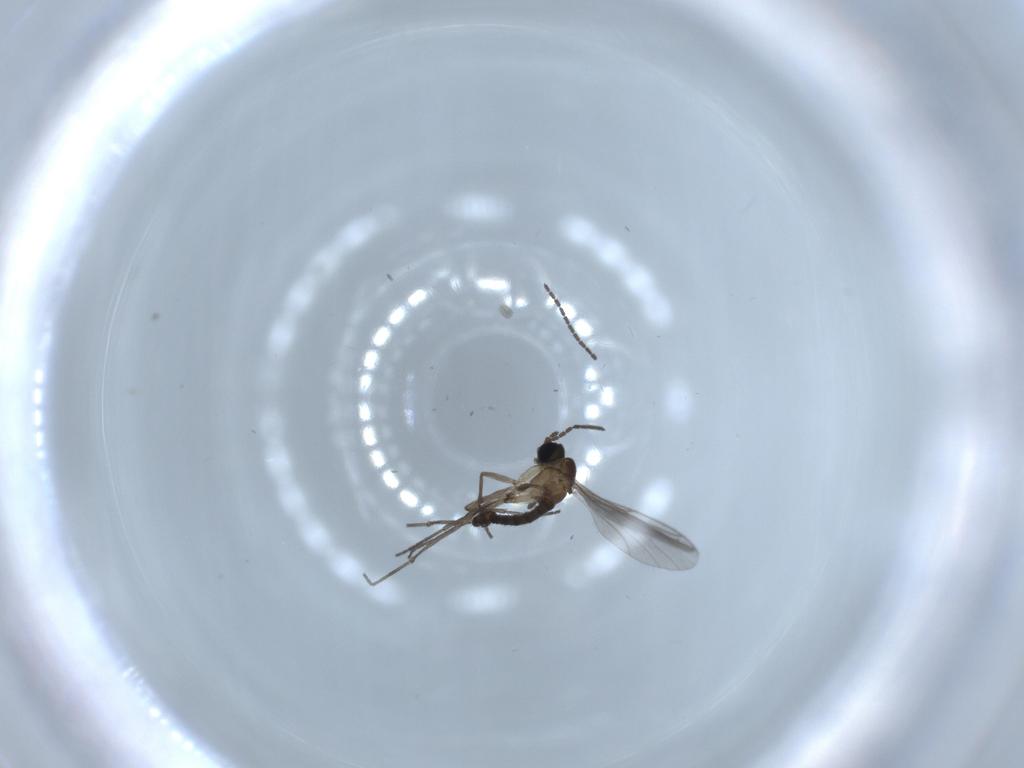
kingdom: Animalia
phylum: Arthropoda
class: Insecta
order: Diptera
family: Sciaridae
